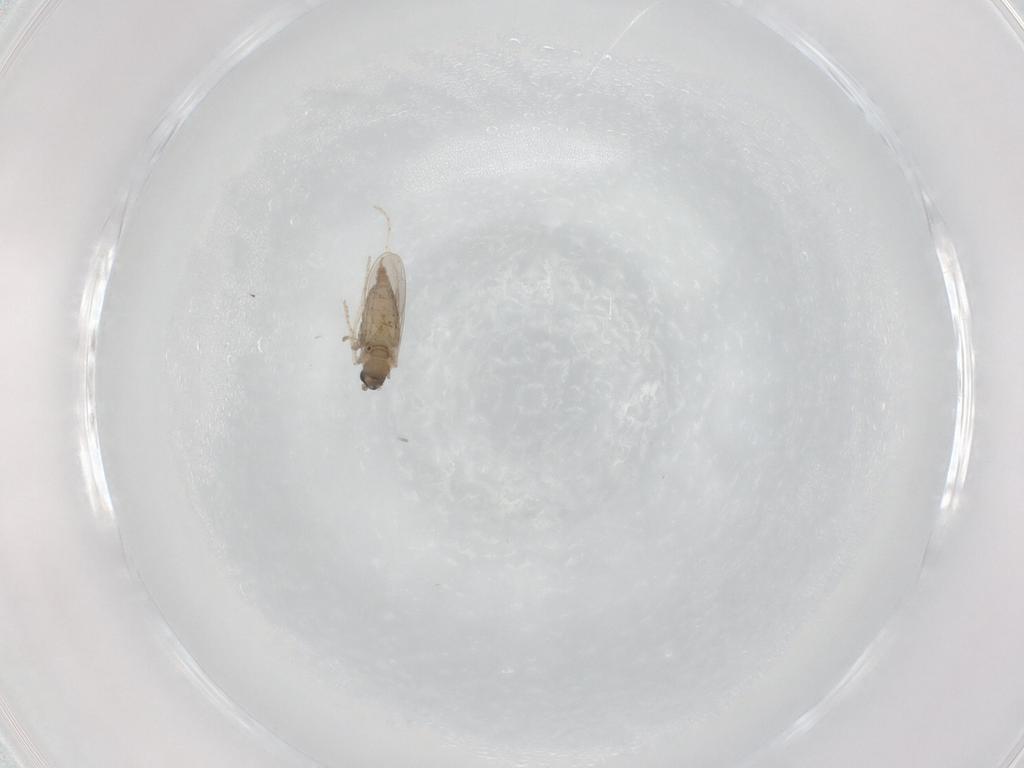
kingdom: Animalia
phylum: Arthropoda
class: Insecta
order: Diptera
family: Cecidomyiidae
